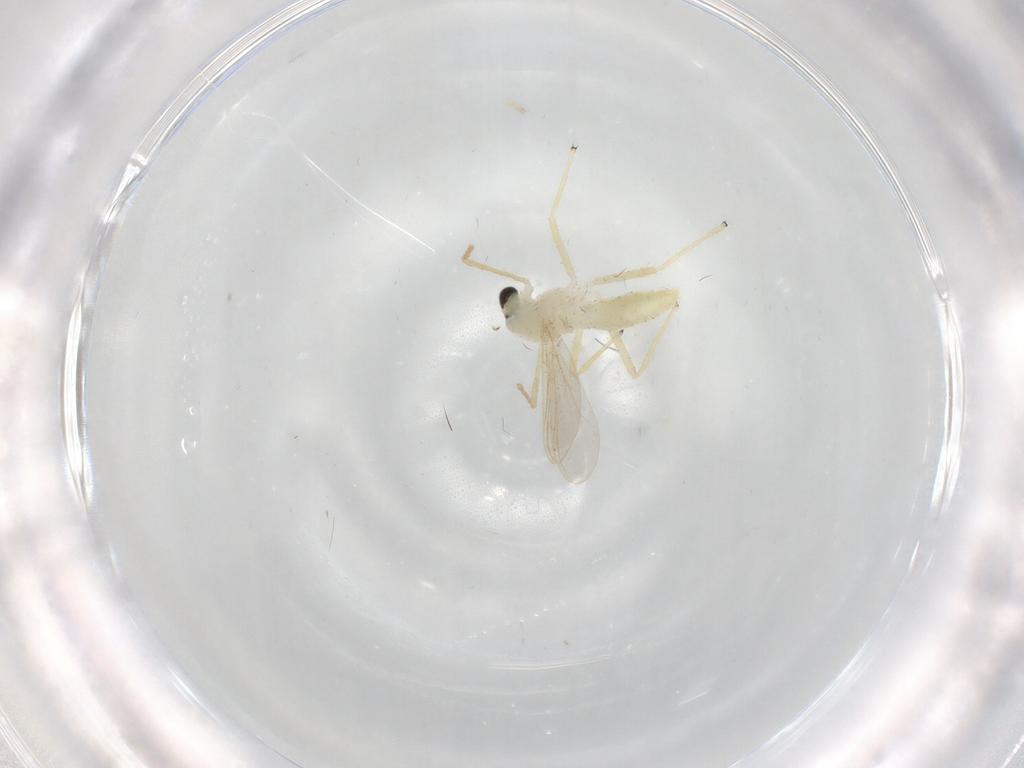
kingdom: Animalia
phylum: Arthropoda
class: Insecta
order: Diptera
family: Chironomidae
